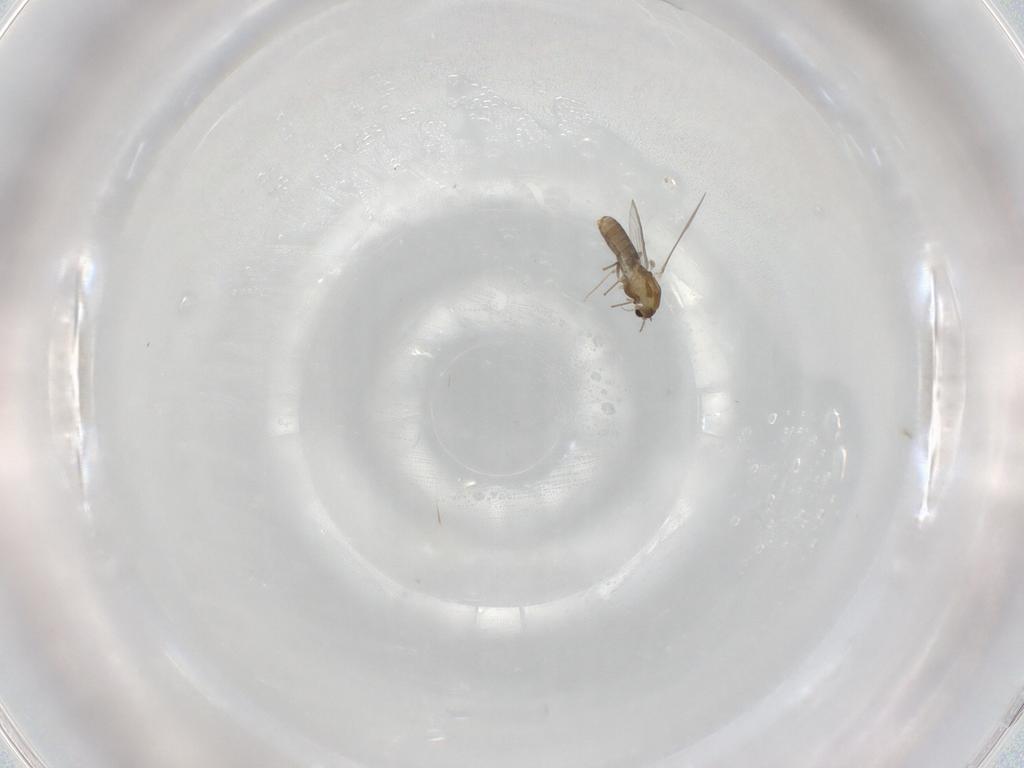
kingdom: Animalia
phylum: Arthropoda
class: Insecta
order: Diptera
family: Chironomidae
